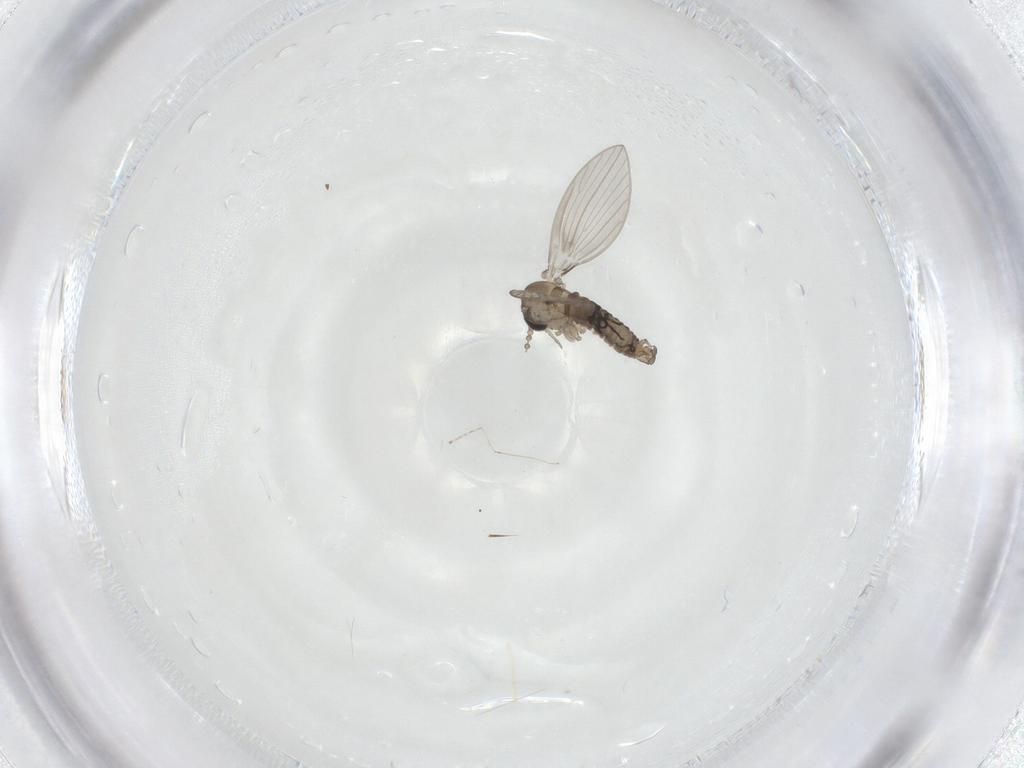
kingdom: Animalia
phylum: Arthropoda
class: Insecta
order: Diptera
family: Psychodidae
